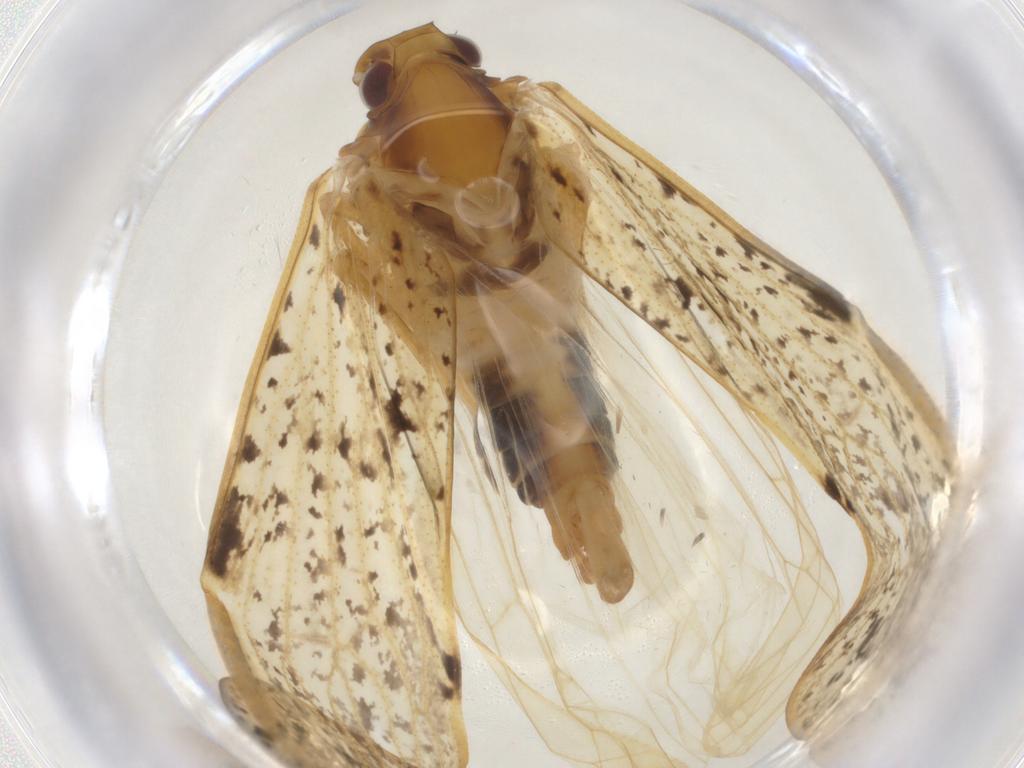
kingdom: Animalia
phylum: Arthropoda
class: Insecta
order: Hemiptera
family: Cixiidae
